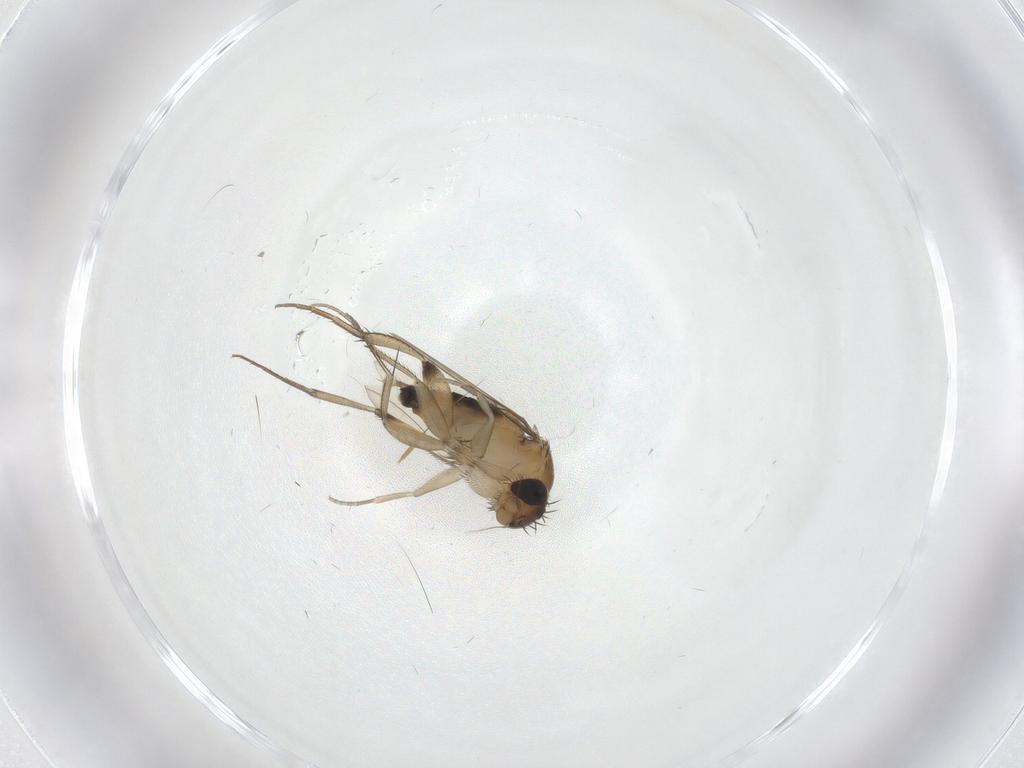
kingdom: Animalia
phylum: Arthropoda
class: Insecta
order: Diptera
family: Phoridae
